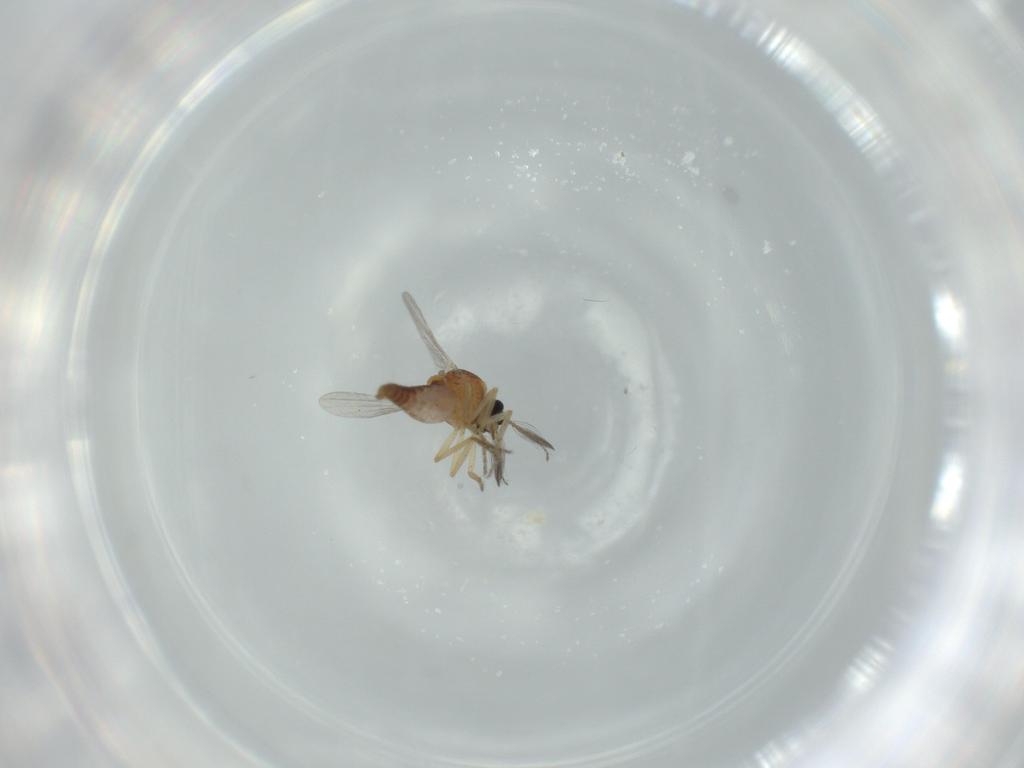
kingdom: Animalia
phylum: Arthropoda
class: Insecta
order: Diptera
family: Ceratopogonidae
